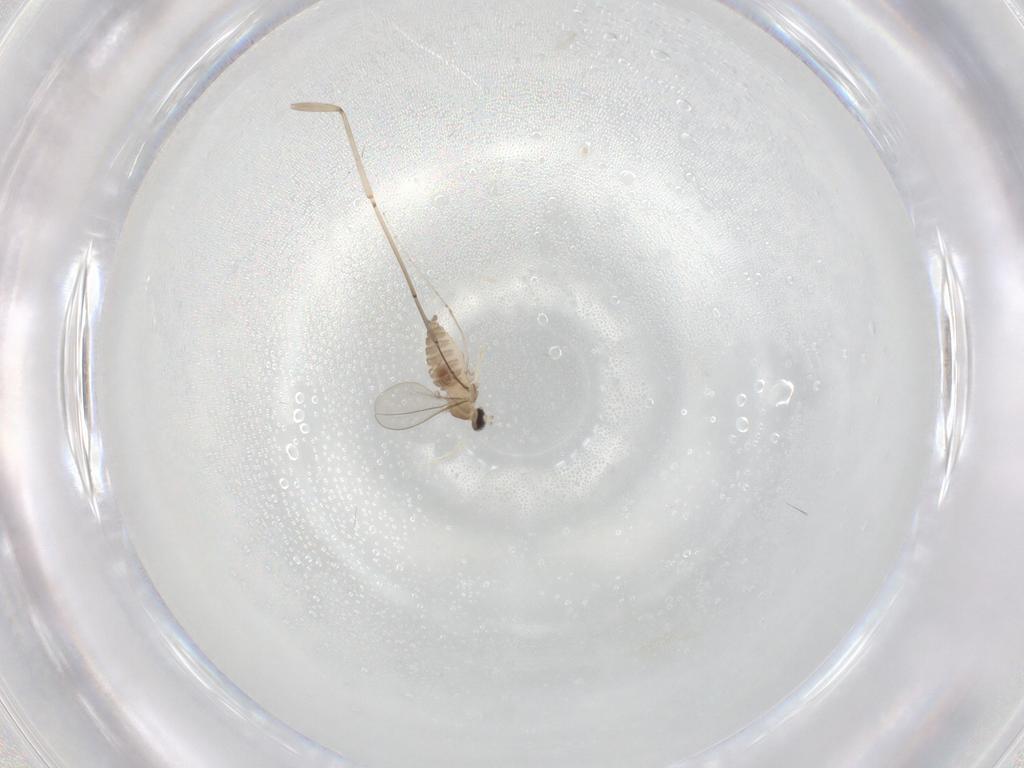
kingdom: Animalia
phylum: Arthropoda
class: Insecta
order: Diptera
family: Cecidomyiidae
